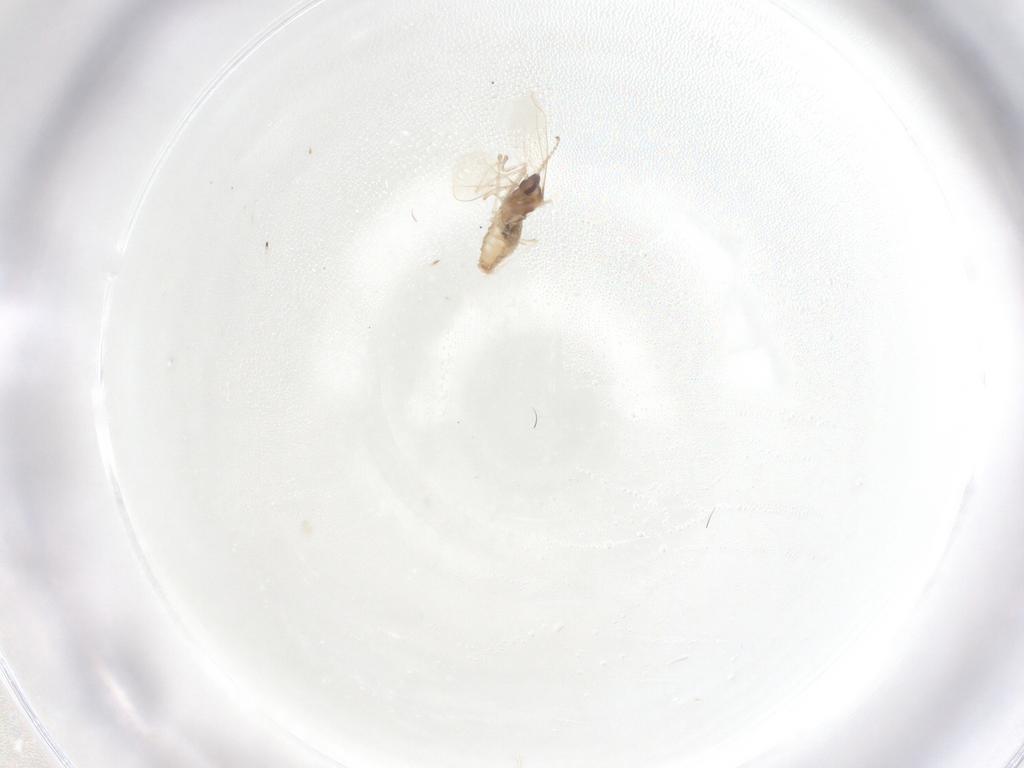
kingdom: Animalia
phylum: Arthropoda
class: Insecta
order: Diptera
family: Cecidomyiidae
